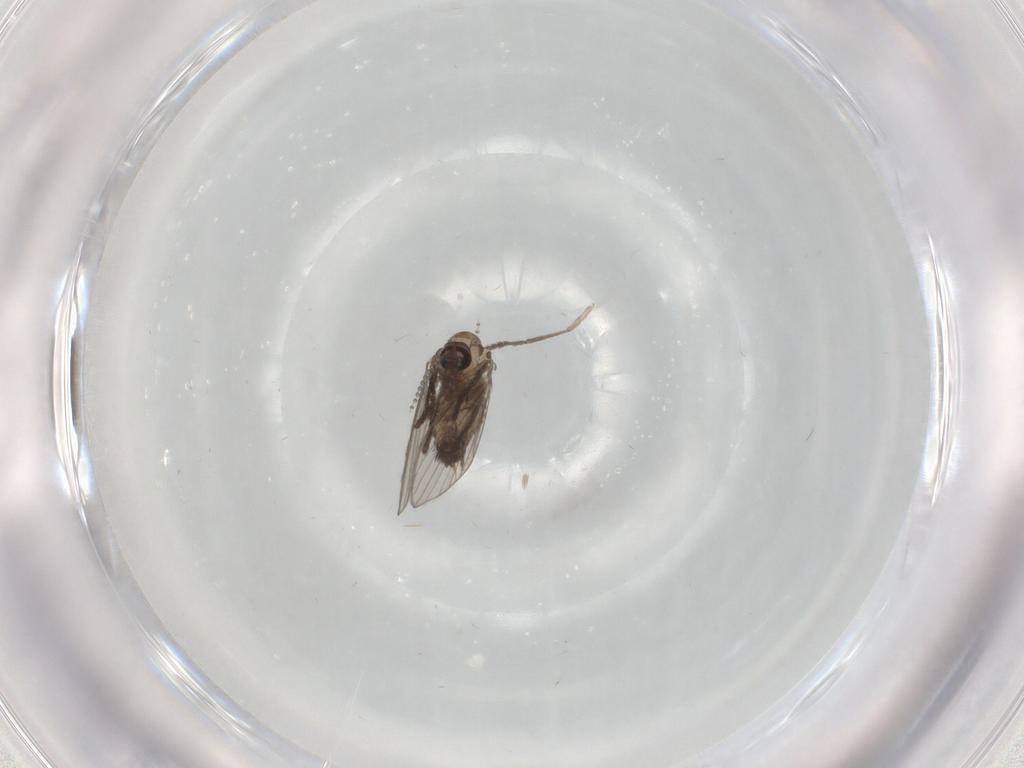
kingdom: Animalia
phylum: Arthropoda
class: Insecta
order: Diptera
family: Psychodidae
